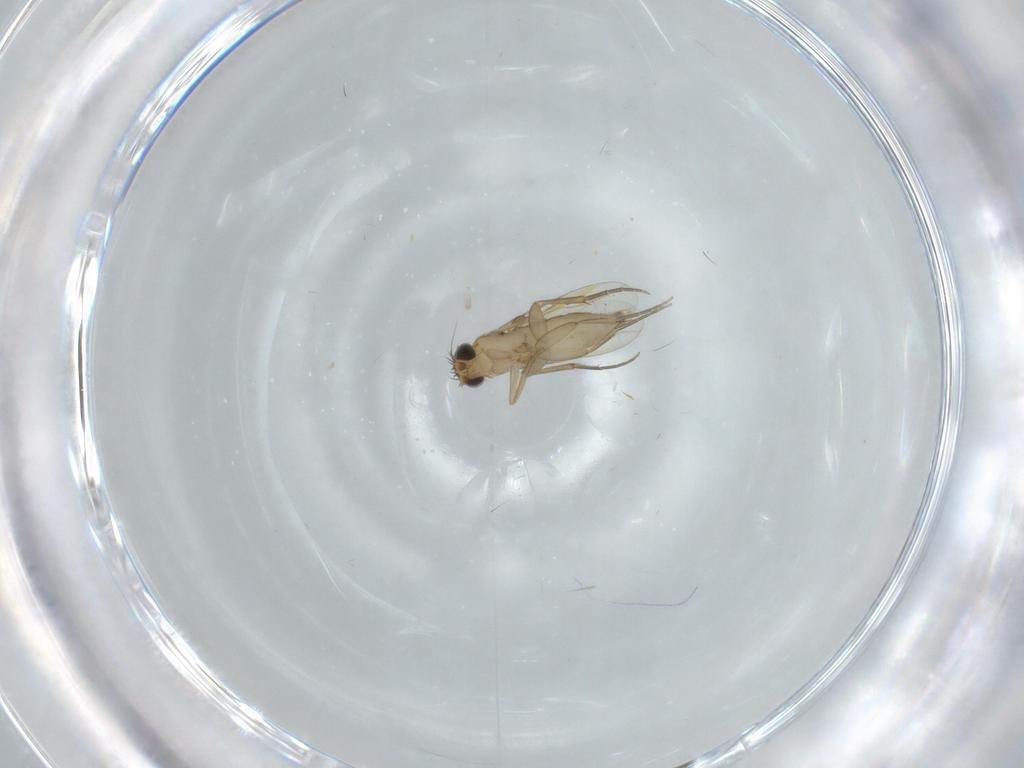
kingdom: Animalia
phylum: Arthropoda
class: Insecta
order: Diptera
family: Phoridae
